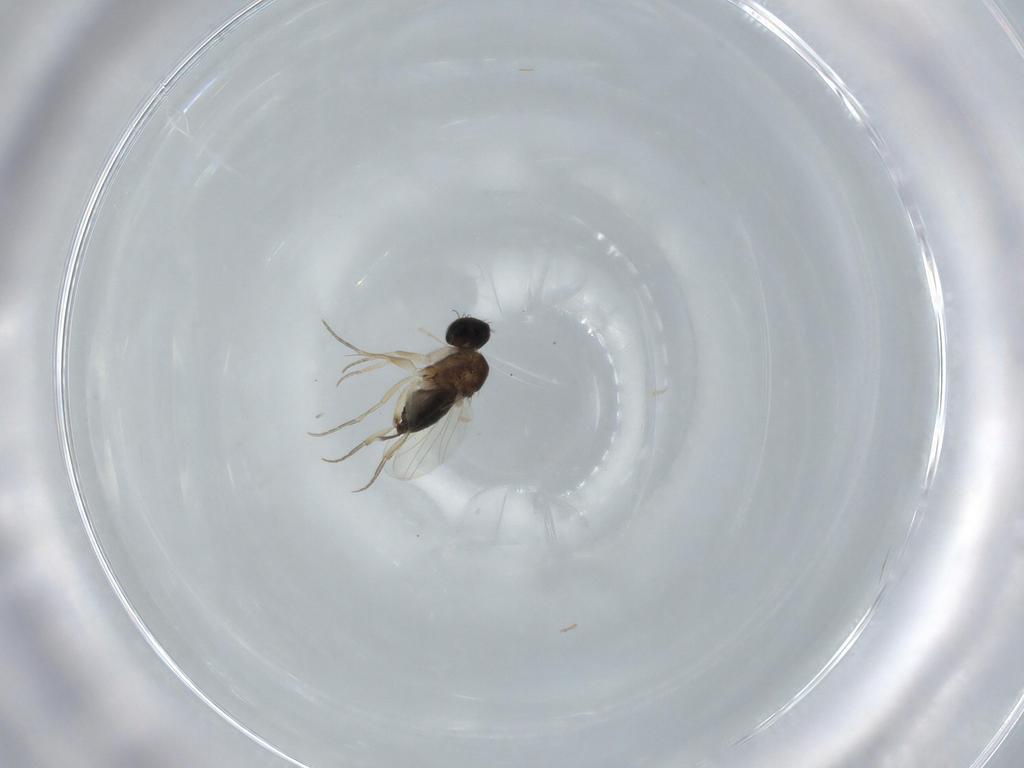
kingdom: Animalia
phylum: Arthropoda
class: Insecta
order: Diptera
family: Phoridae
